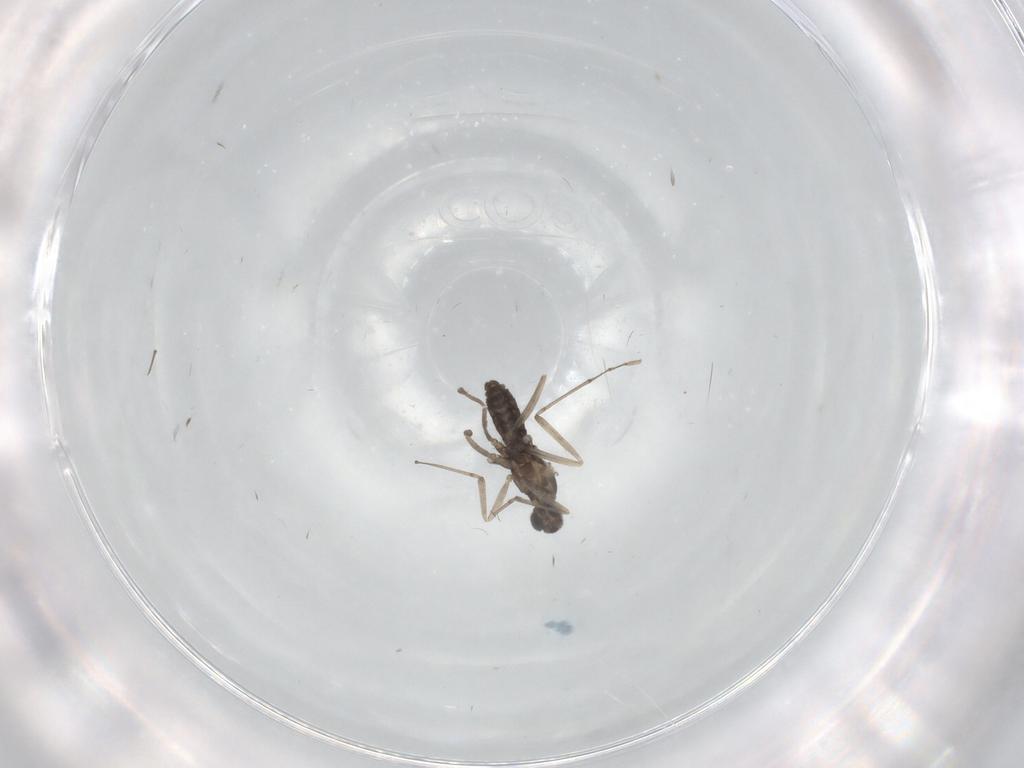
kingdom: Animalia
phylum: Arthropoda
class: Insecta
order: Diptera
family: Cecidomyiidae
